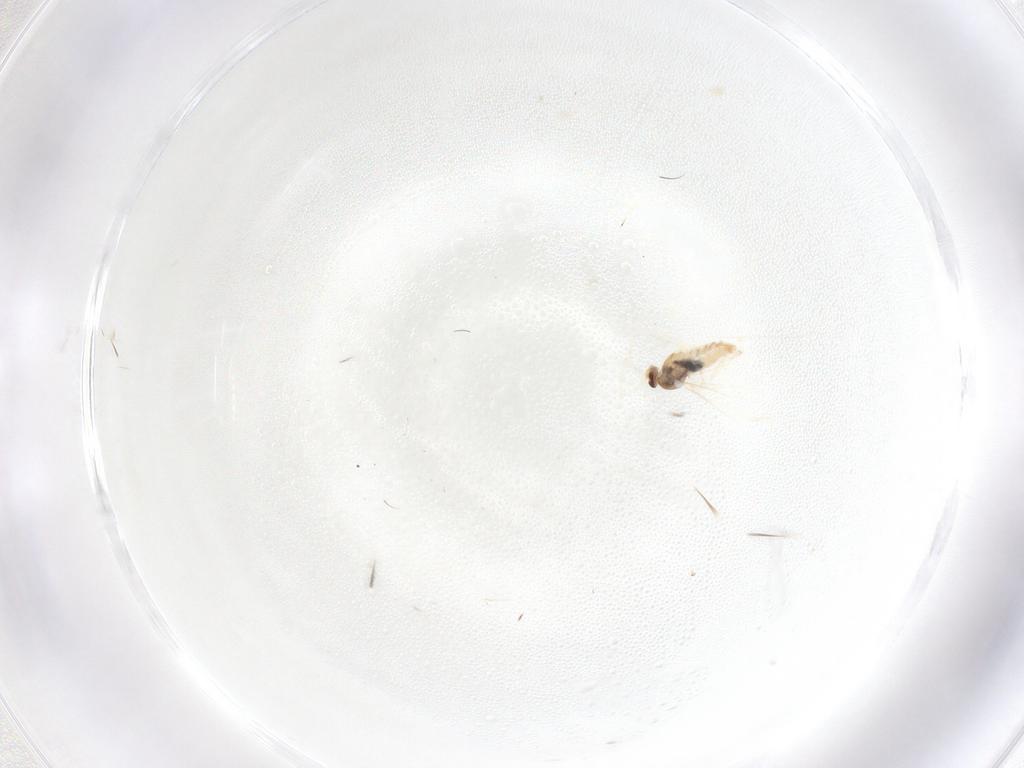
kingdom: Animalia
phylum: Arthropoda
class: Insecta
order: Diptera
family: Cecidomyiidae
